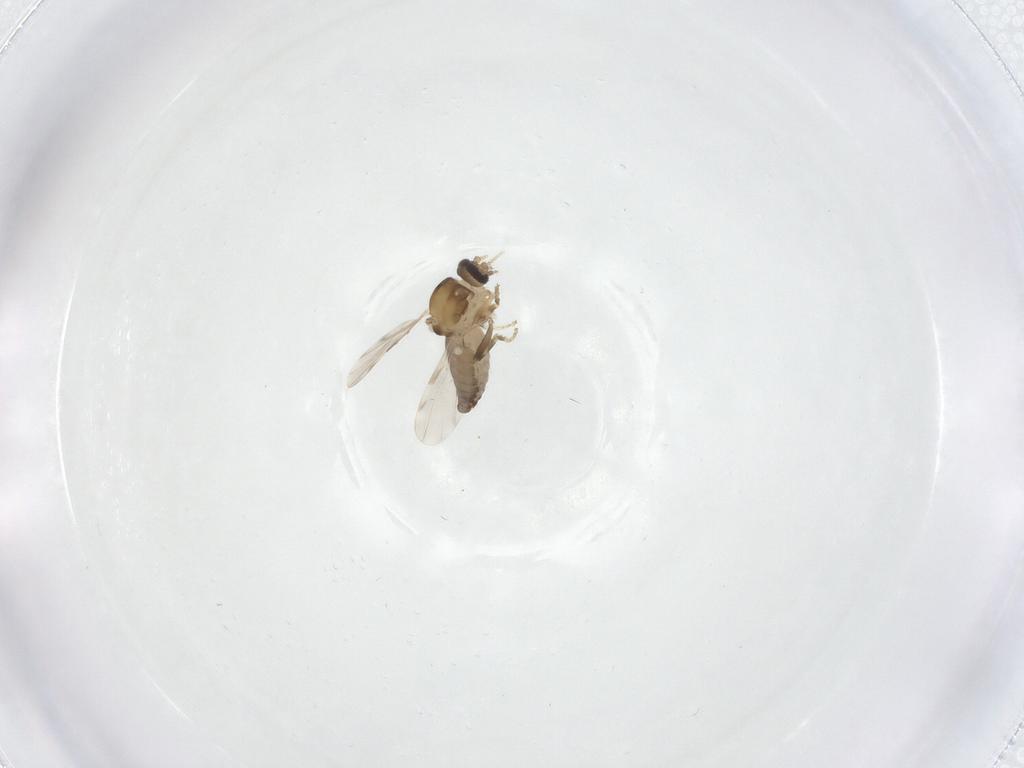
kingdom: Animalia
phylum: Arthropoda
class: Insecta
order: Diptera
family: Ceratopogonidae
